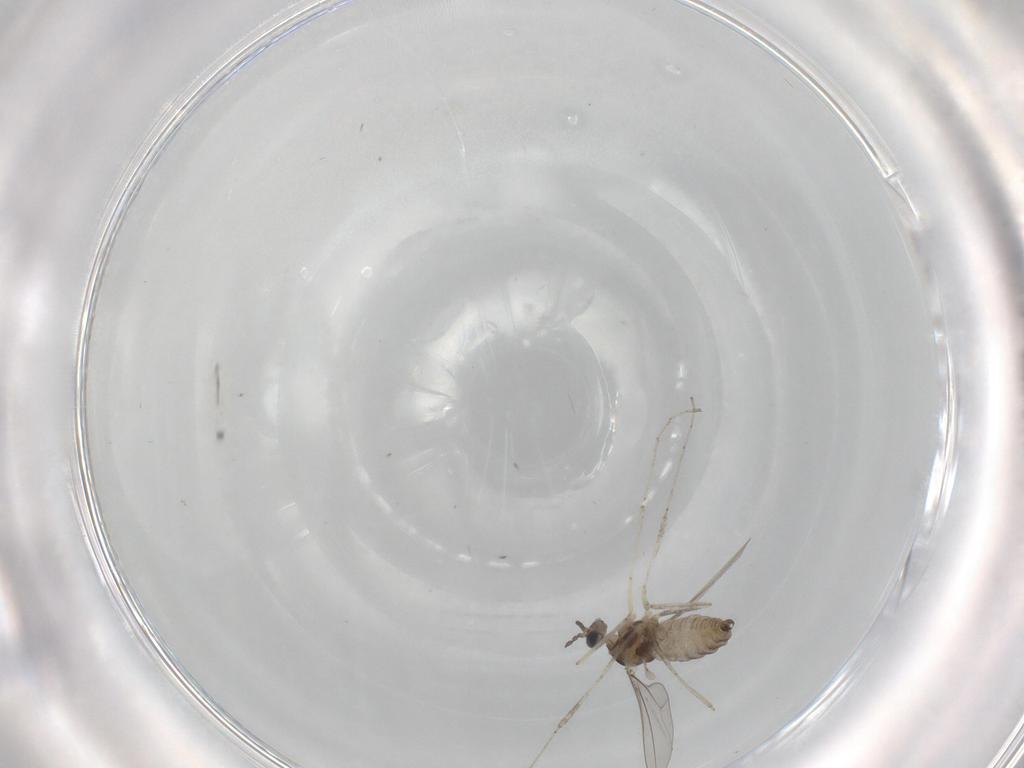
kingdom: Animalia
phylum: Arthropoda
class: Insecta
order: Diptera
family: Cecidomyiidae
